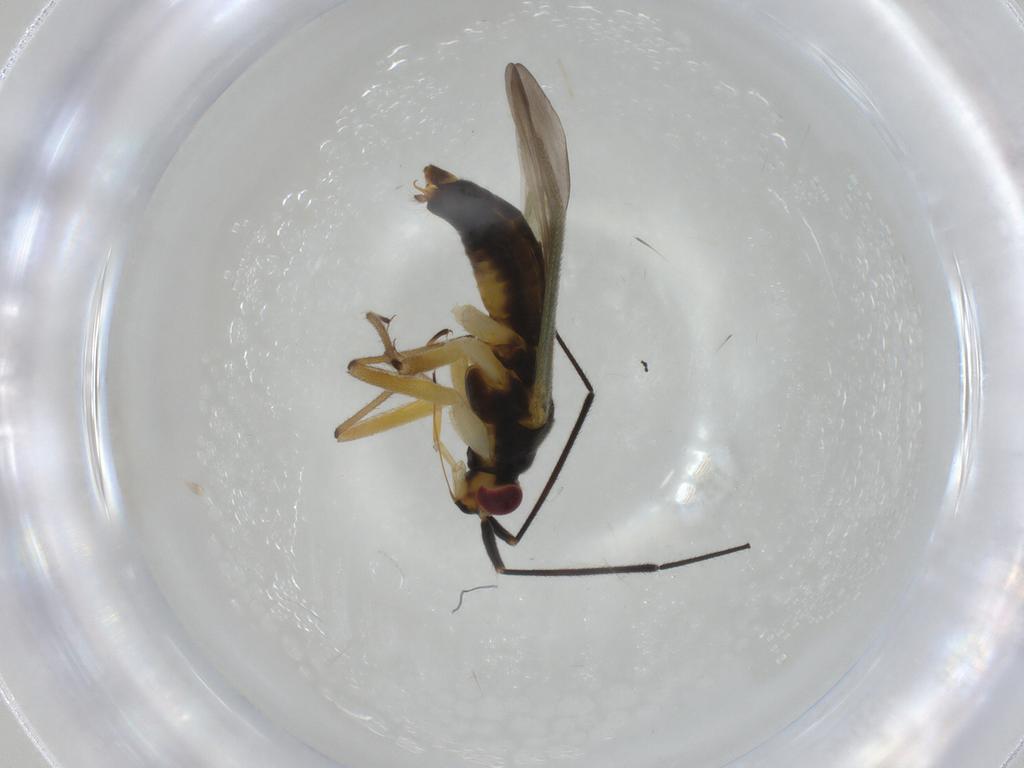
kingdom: Animalia
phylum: Arthropoda
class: Insecta
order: Hemiptera
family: Miridae
